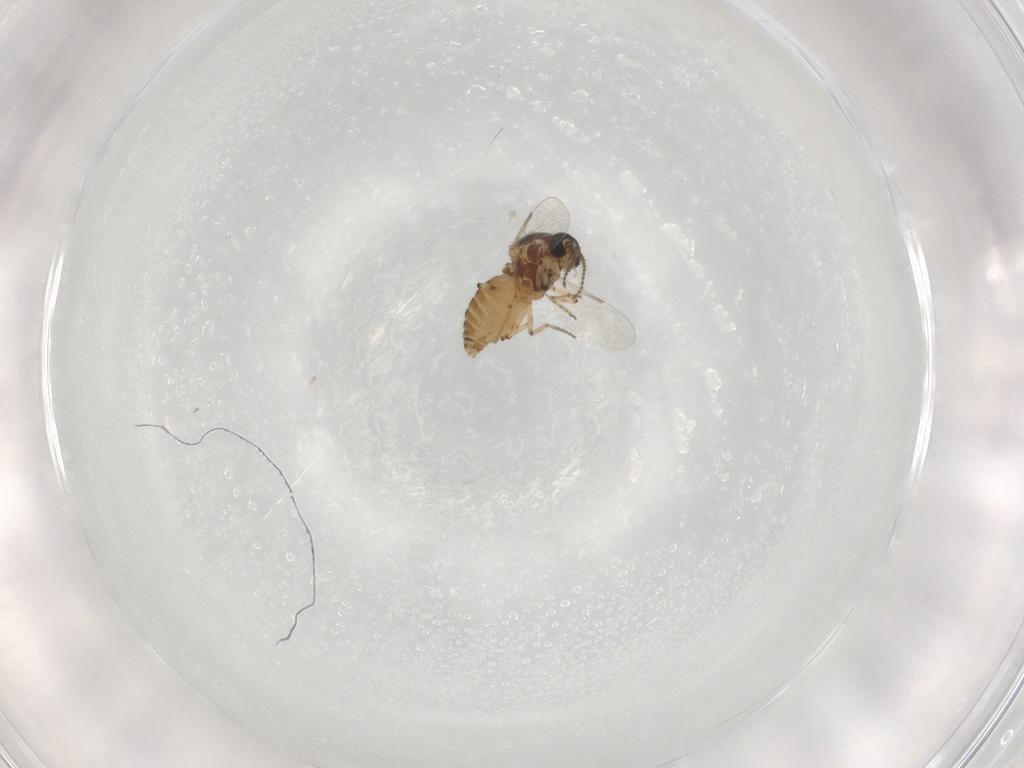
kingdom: Animalia
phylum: Arthropoda
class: Insecta
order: Diptera
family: Ceratopogonidae
